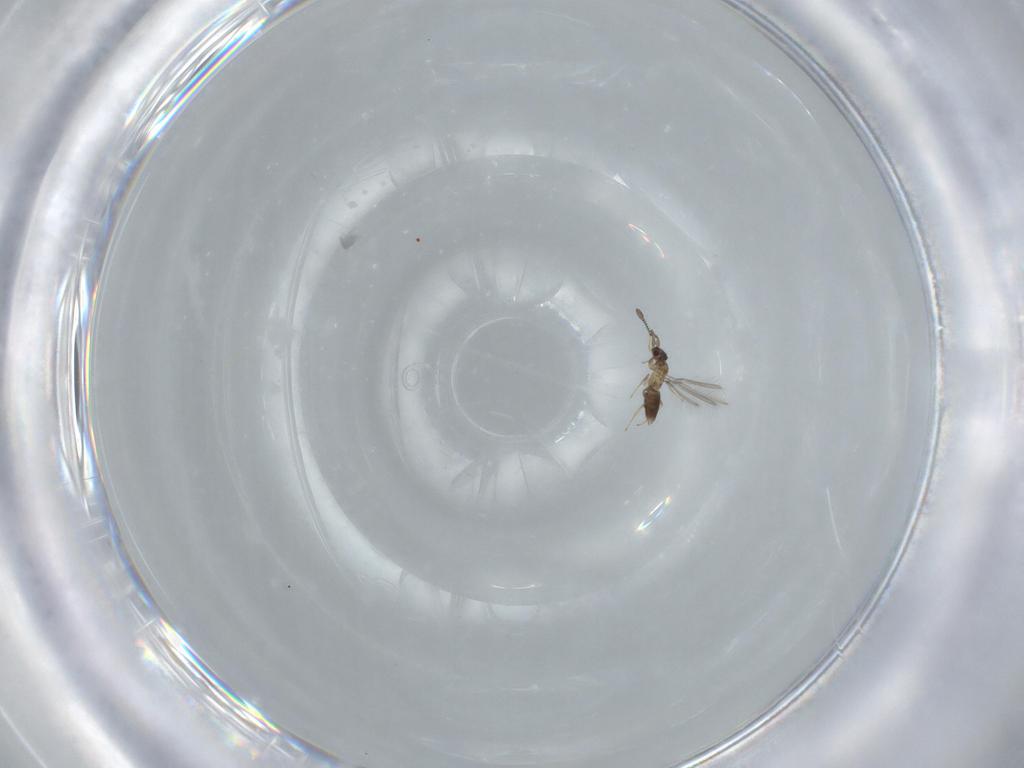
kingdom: Animalia
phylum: Arthropoda
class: Insecta
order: Hymenoptera
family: Mymaridae
